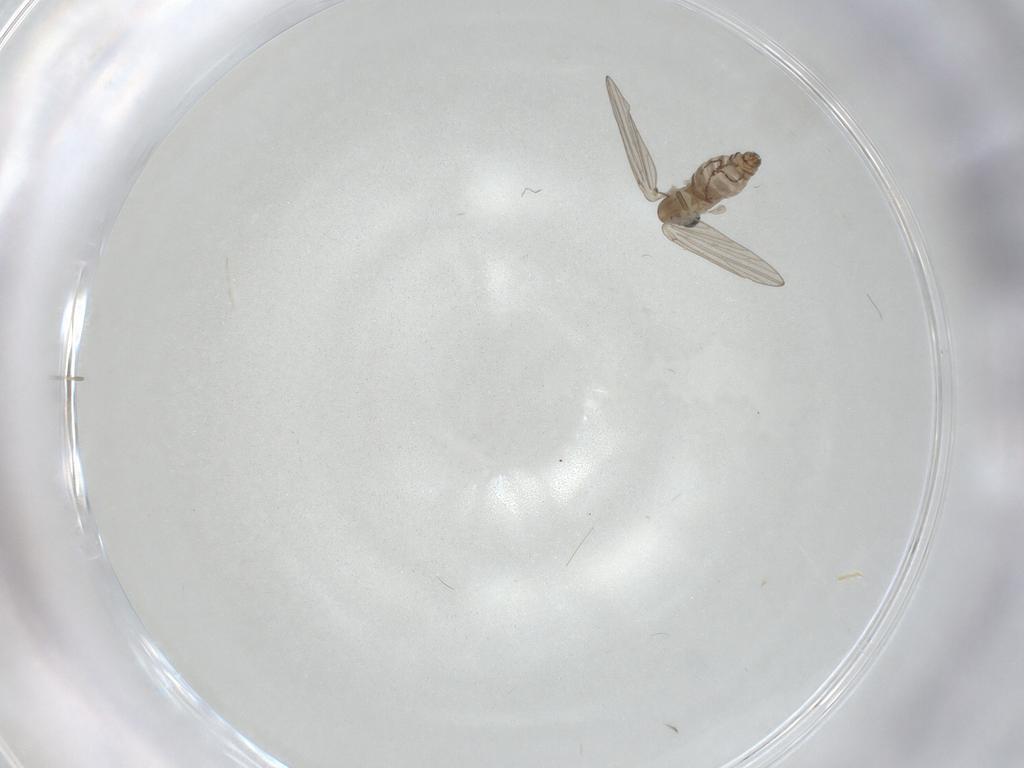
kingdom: Animalia
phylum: Arthropoda
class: Insecta
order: Diptera
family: Psychodidae
